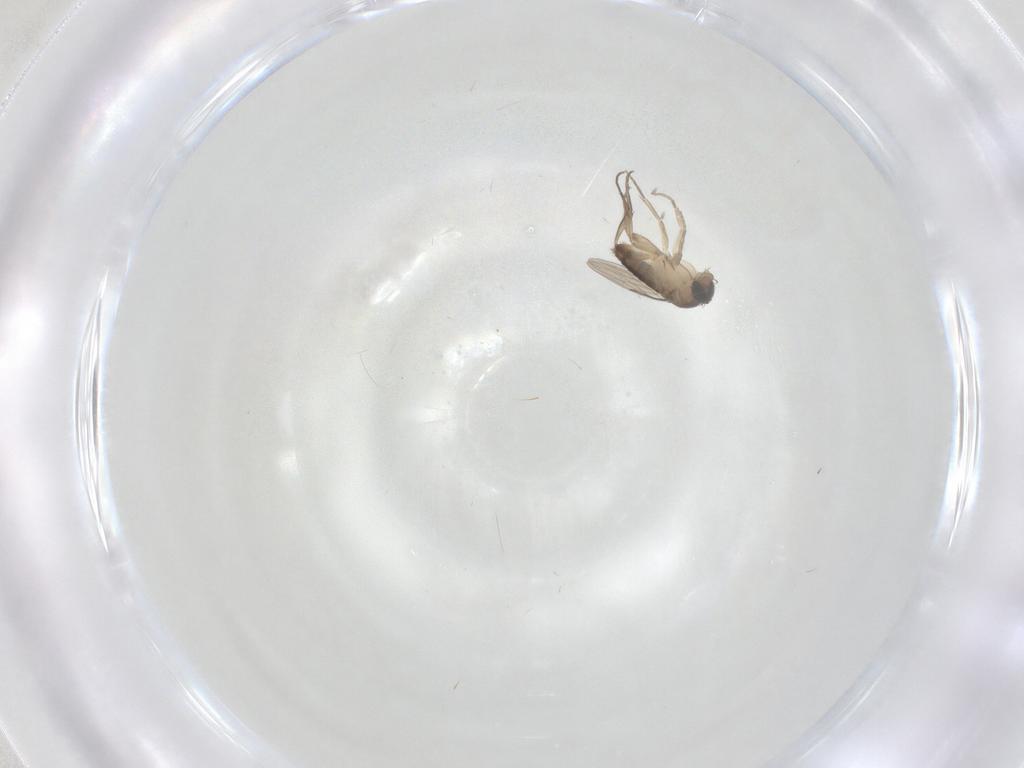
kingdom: Animalia
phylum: Arthropoda
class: Insecta
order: Diptera
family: Phoridae
